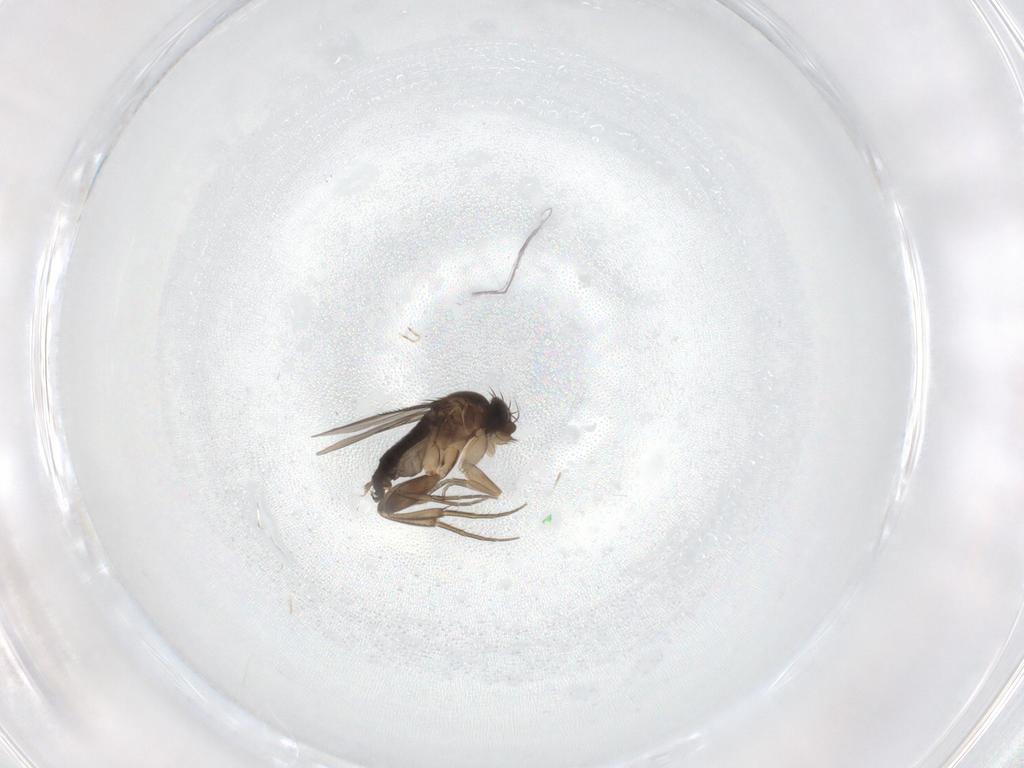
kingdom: Animalia
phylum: Arthropoda
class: Insecta
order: Diptera
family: Phoridae
